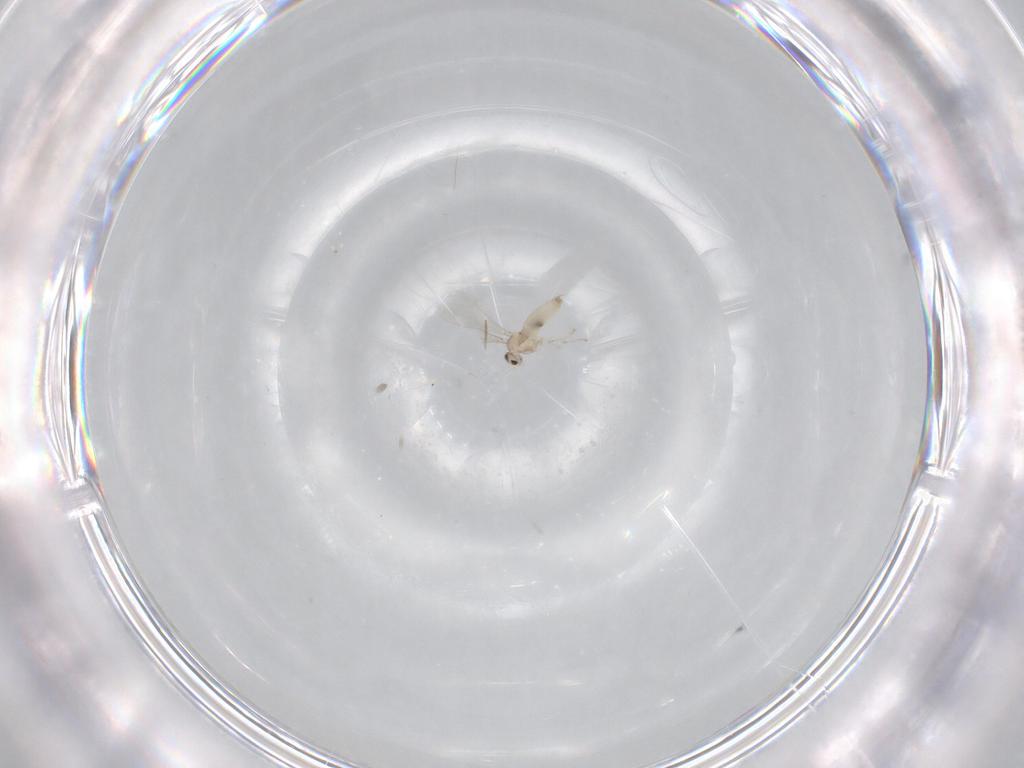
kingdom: Animalia
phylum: Arthropoda
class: Insecta
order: Diptera
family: Cecidomyiidae
